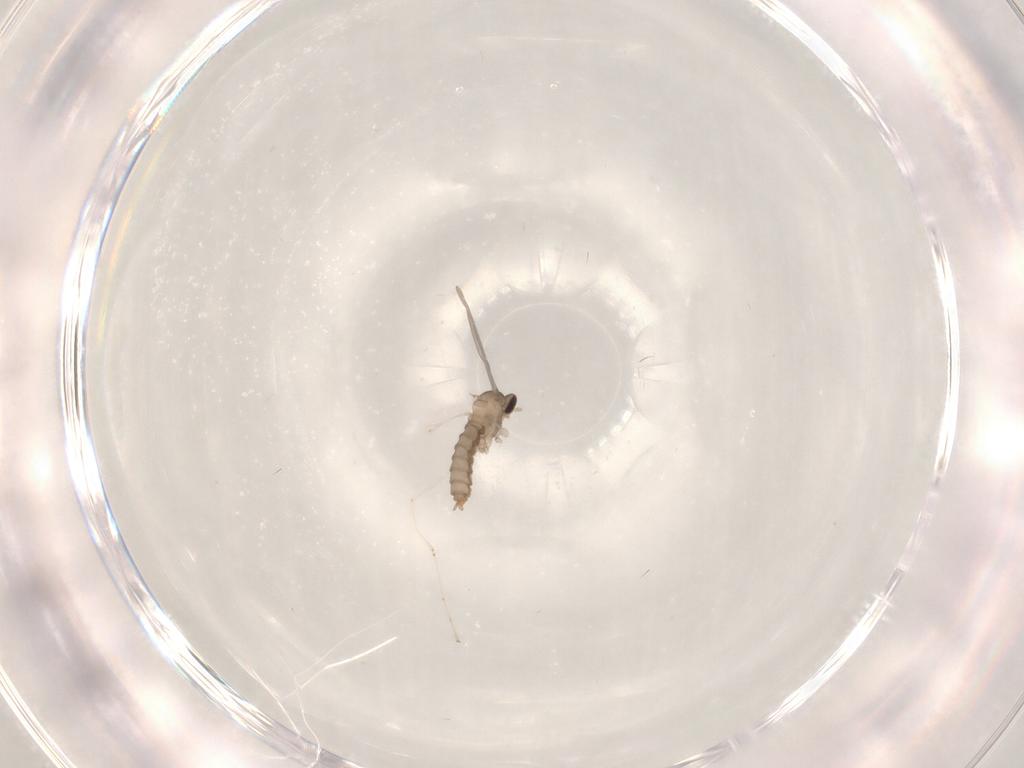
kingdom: Animalia
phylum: Arthropoda
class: Insecta
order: Diptera
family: Cecidomyiidae
